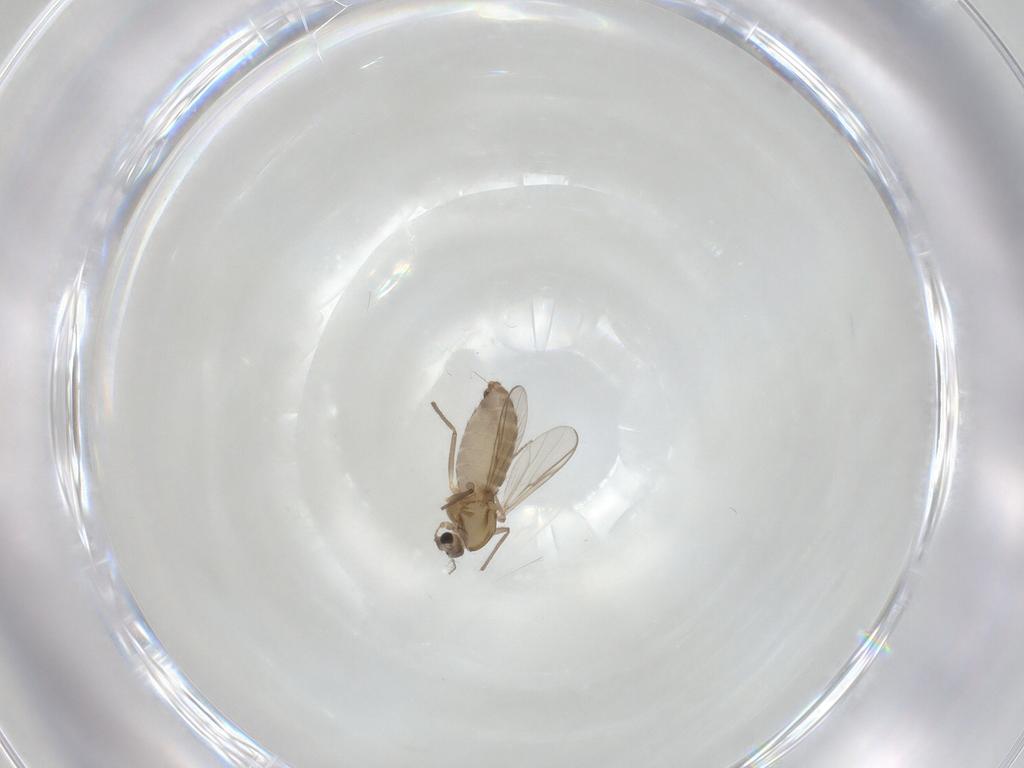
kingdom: Animalia
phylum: Arthropoda
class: Insecta
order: Diptera
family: Chironomidae
